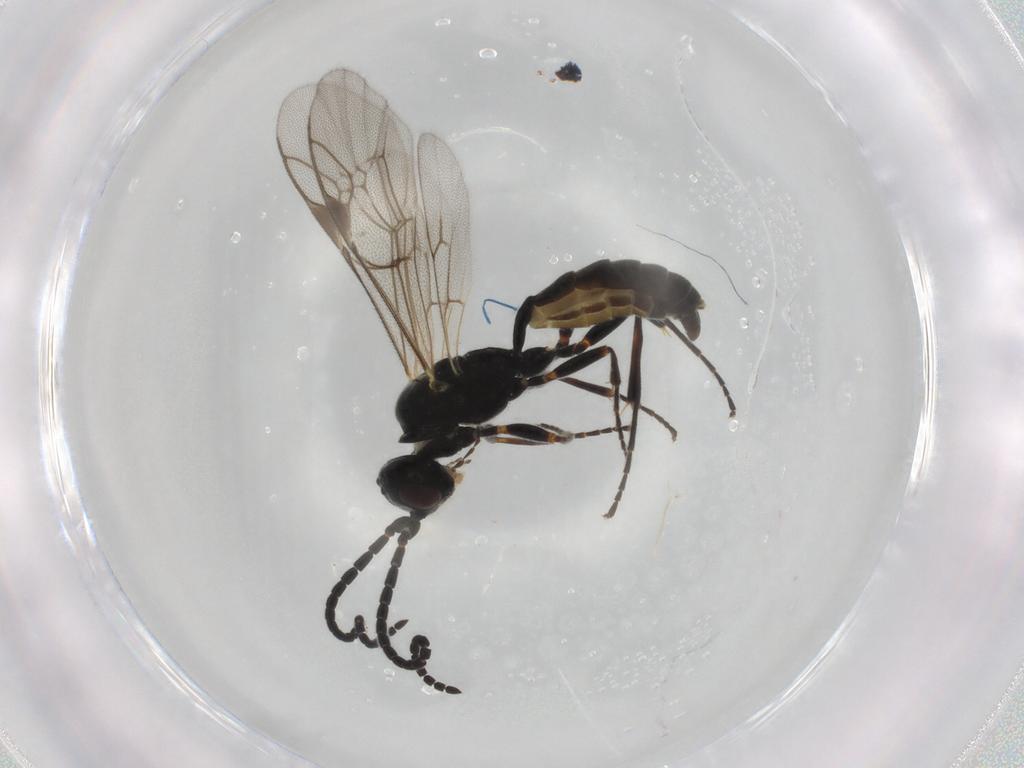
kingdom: Animalia
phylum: Arthropoda
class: Insecta
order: Hymenoptera
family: Ichneumonidae
